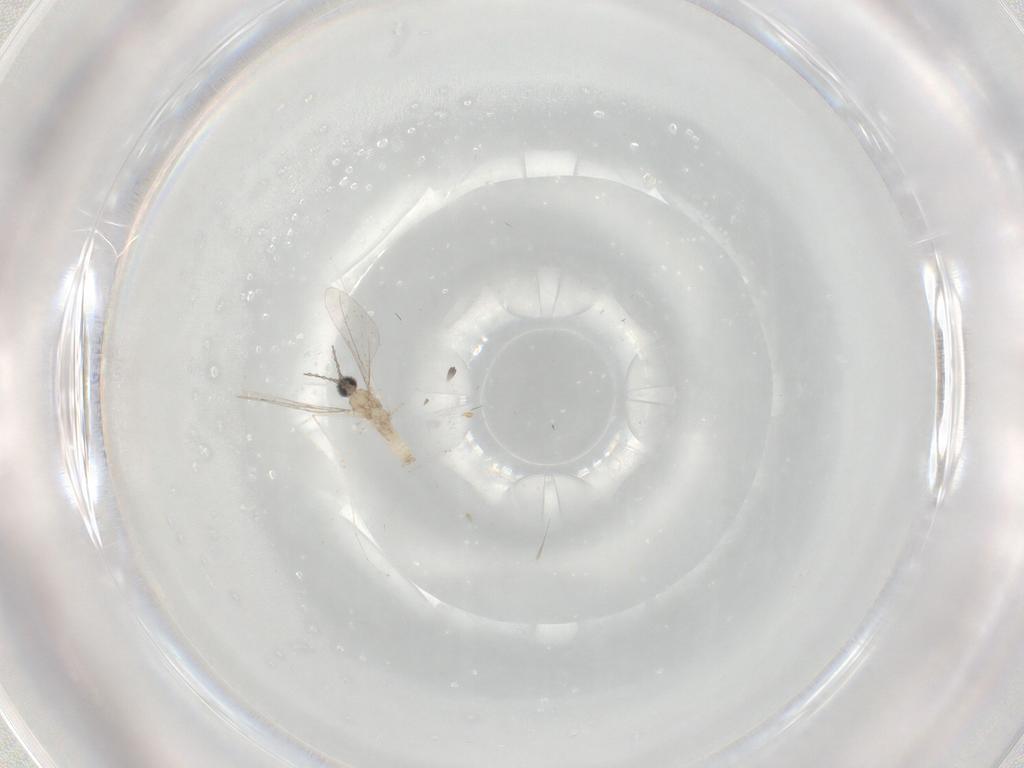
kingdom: Animalia
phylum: Arthropoda
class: Insecta
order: Diptera
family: Cecidomyiidae
